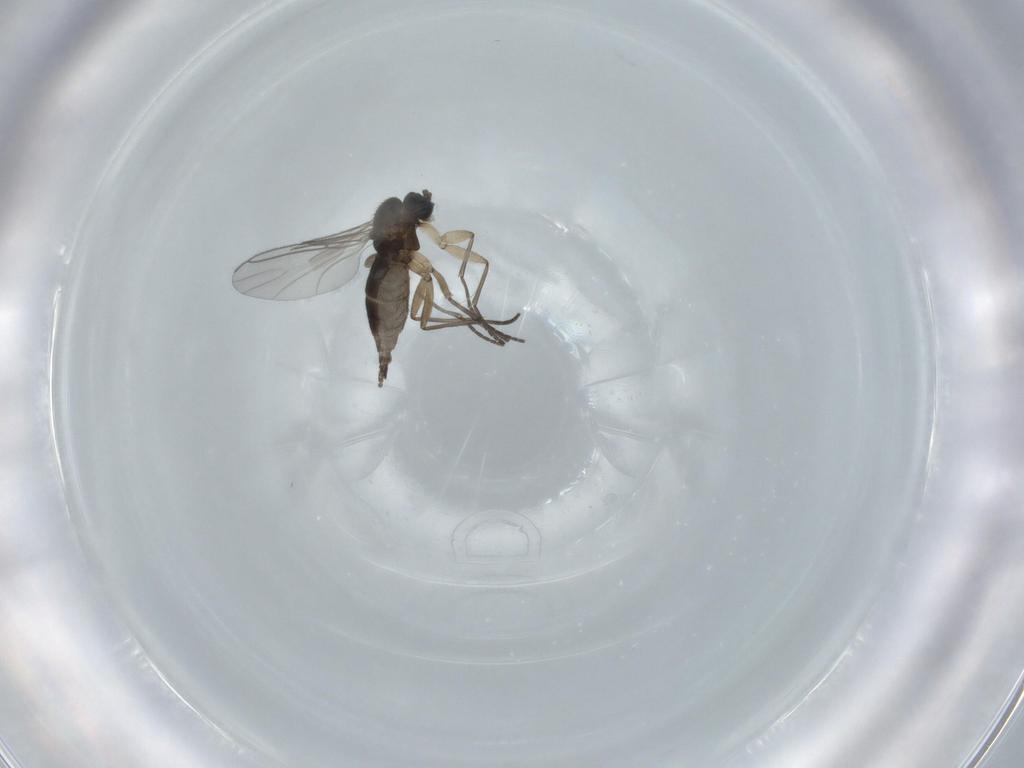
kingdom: Animalia
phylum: Arthropoda
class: Insecta
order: Diptera
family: Sciaridae
